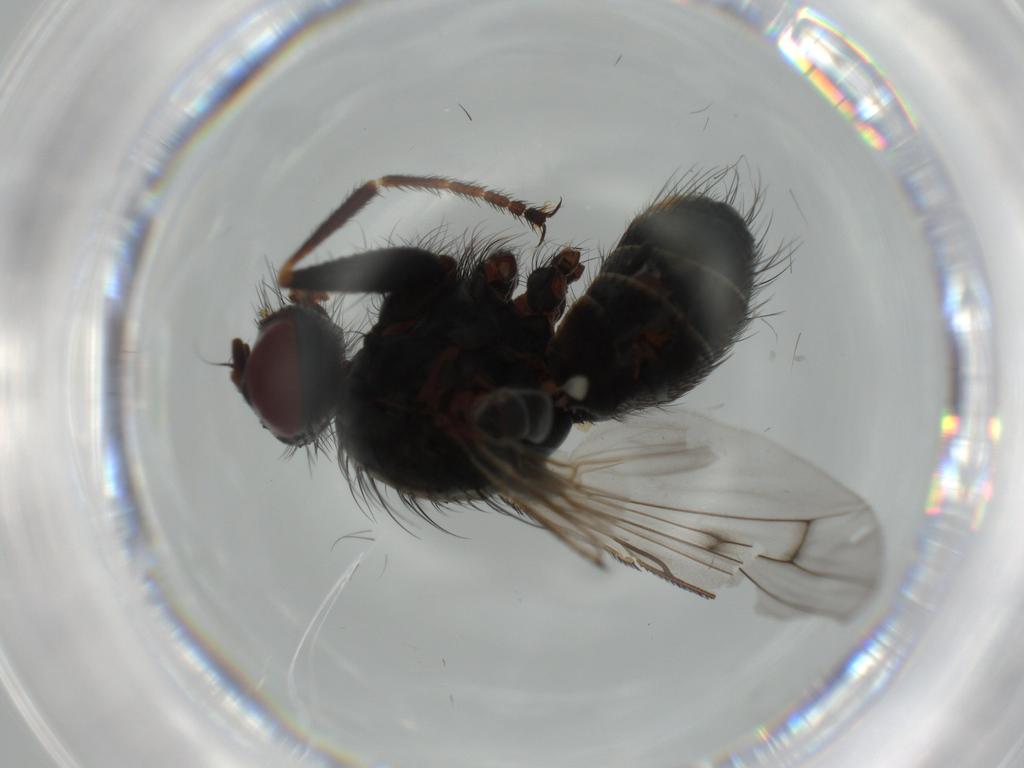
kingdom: Animalia
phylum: Arthropoda
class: Insecta
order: Diptera
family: Muscidae
